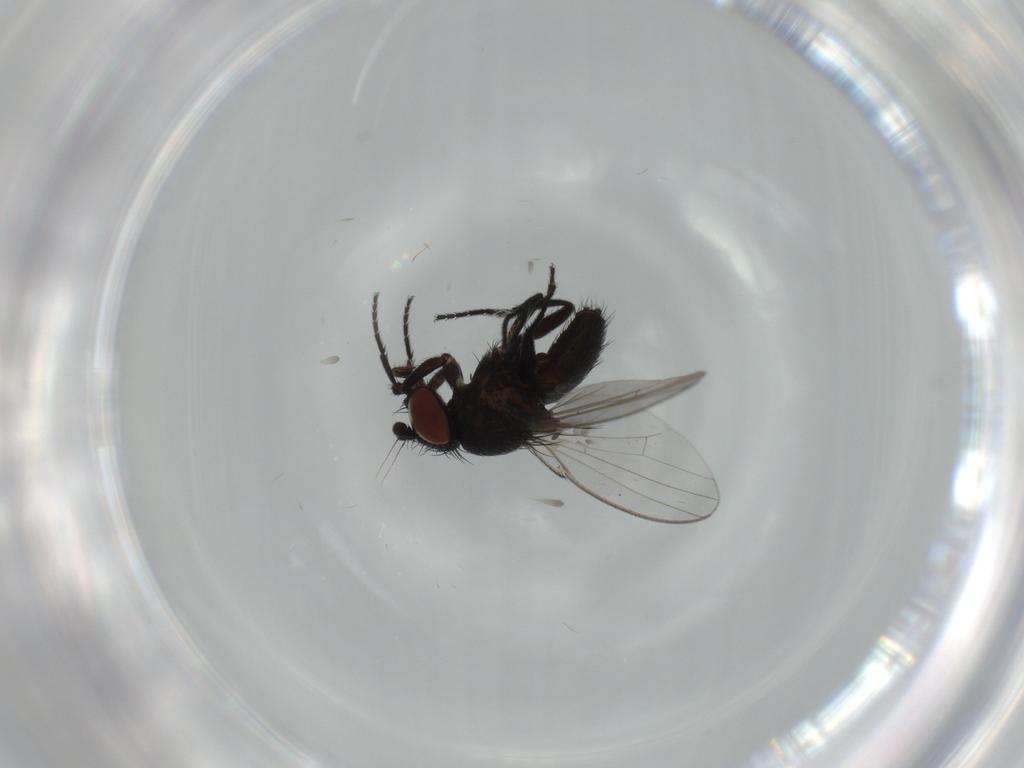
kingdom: Animalia
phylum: Arthropoda
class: Insecta
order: Diptera
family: Milichiidae
